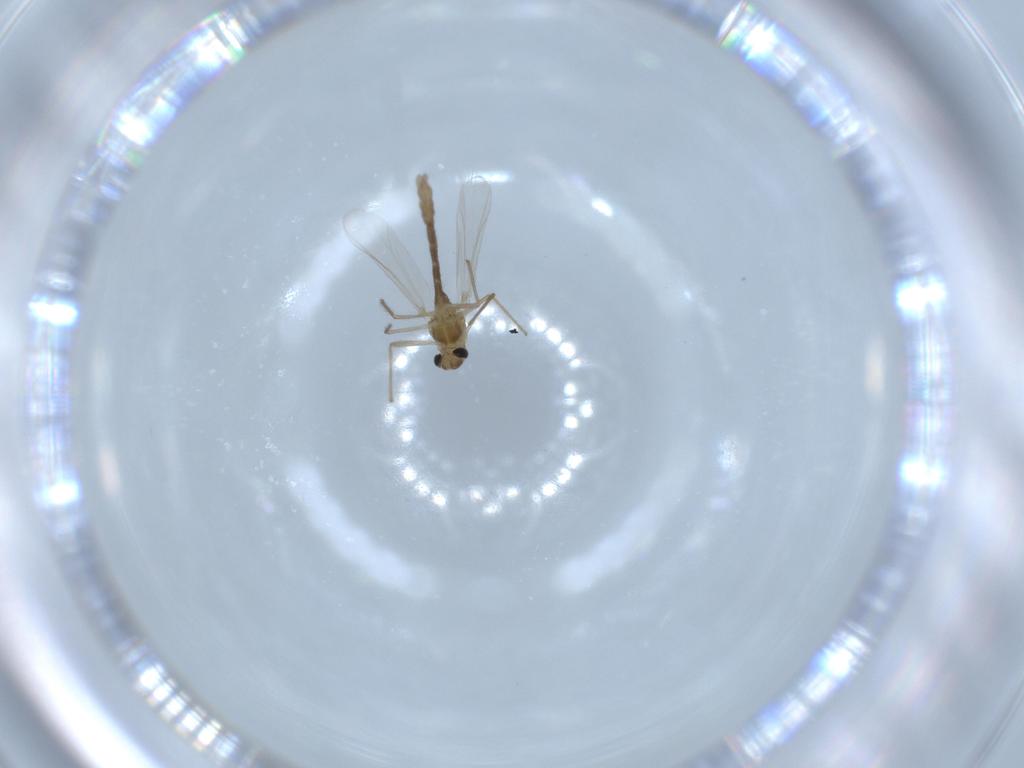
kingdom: Animalia
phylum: Arthropoda
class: Insecta
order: Diptera
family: Chironomidae
